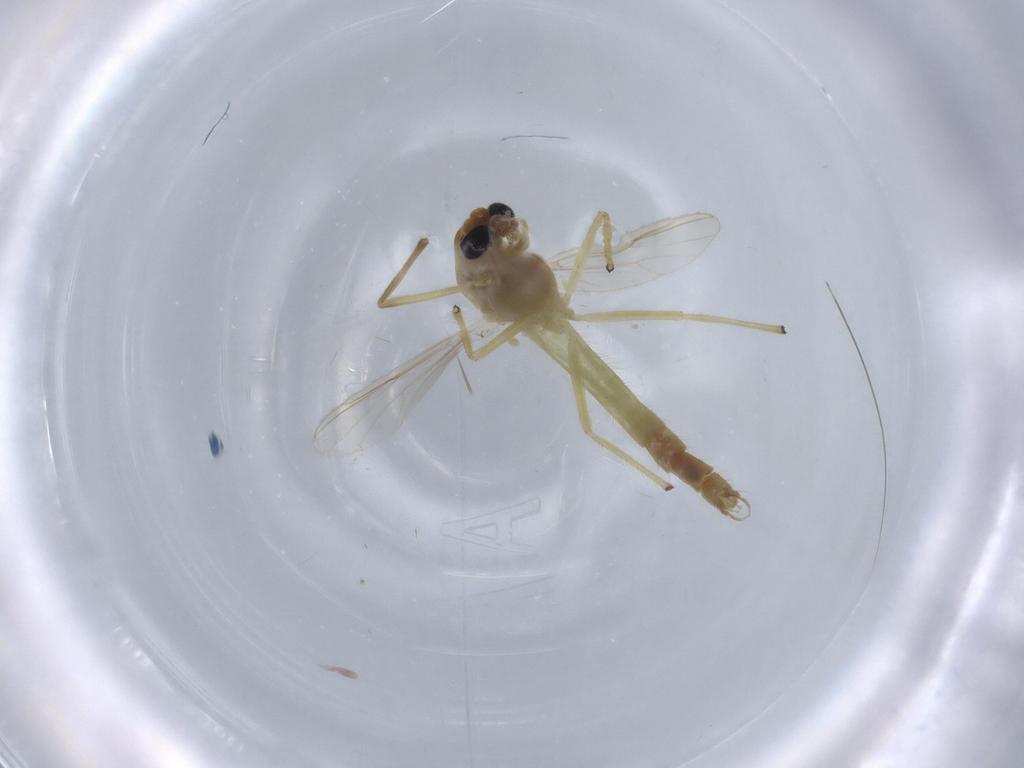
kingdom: Animalia
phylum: Arthropoda
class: Insecta
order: Diptera
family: Chironomidae
